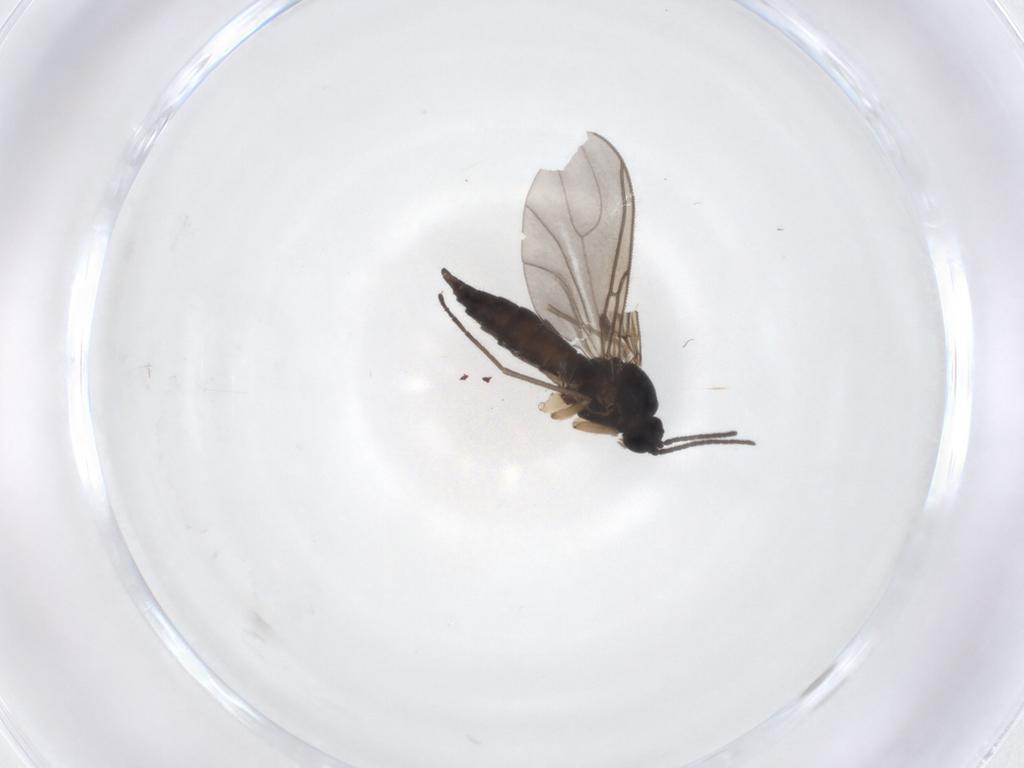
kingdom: Animalia
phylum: Arthropoda
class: Insecta
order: Diptera
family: Sciaridae
